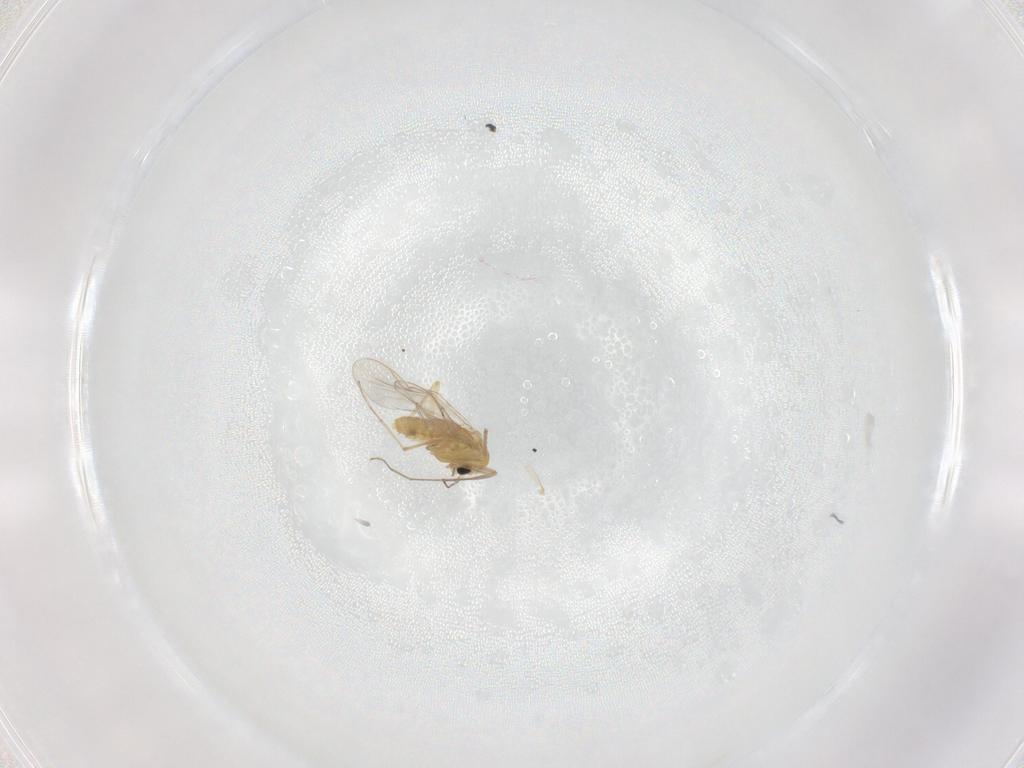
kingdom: Animalia
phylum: Arthropoda
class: Insecta
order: Diptera
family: Chironomidae
